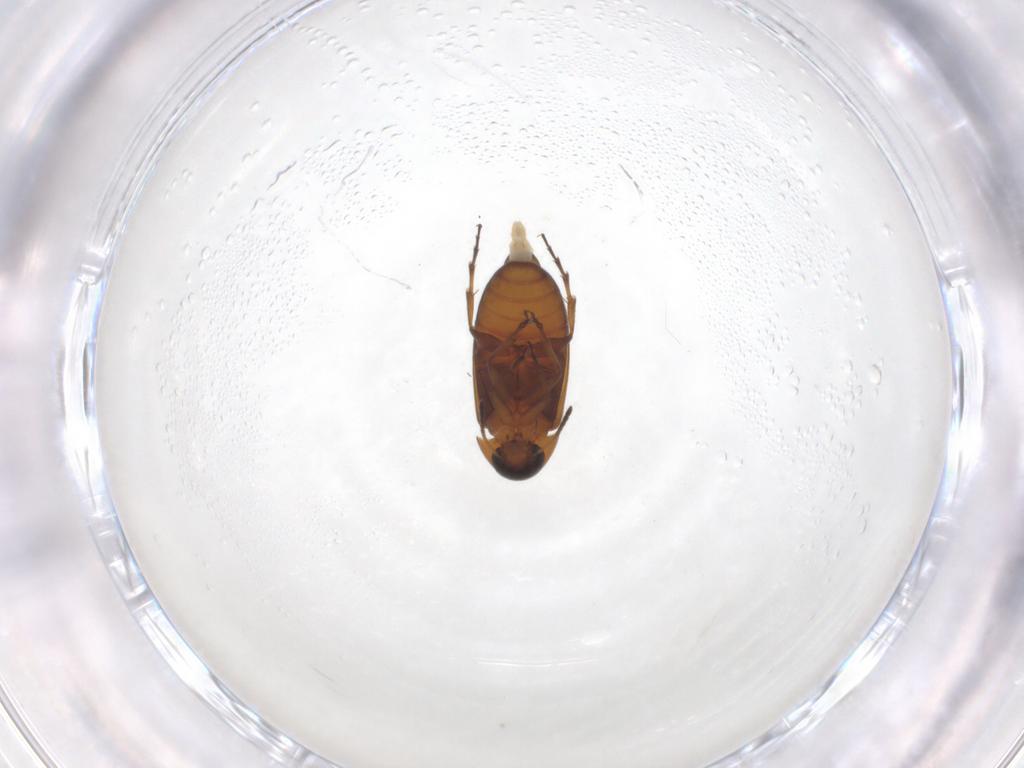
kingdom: Animalia
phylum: Arthropoda
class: Insecta
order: Coleoptera
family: Scraptiidae
